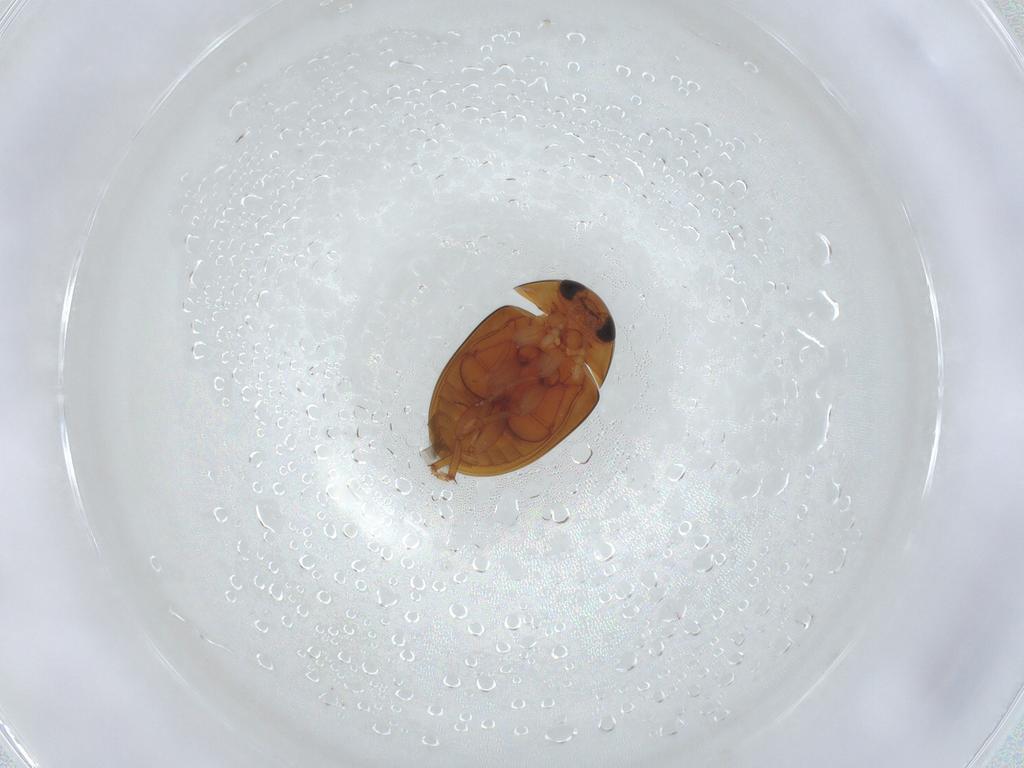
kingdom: Animalia
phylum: Arthropoda
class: Insecta
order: Coleoptera
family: Phalacridae
